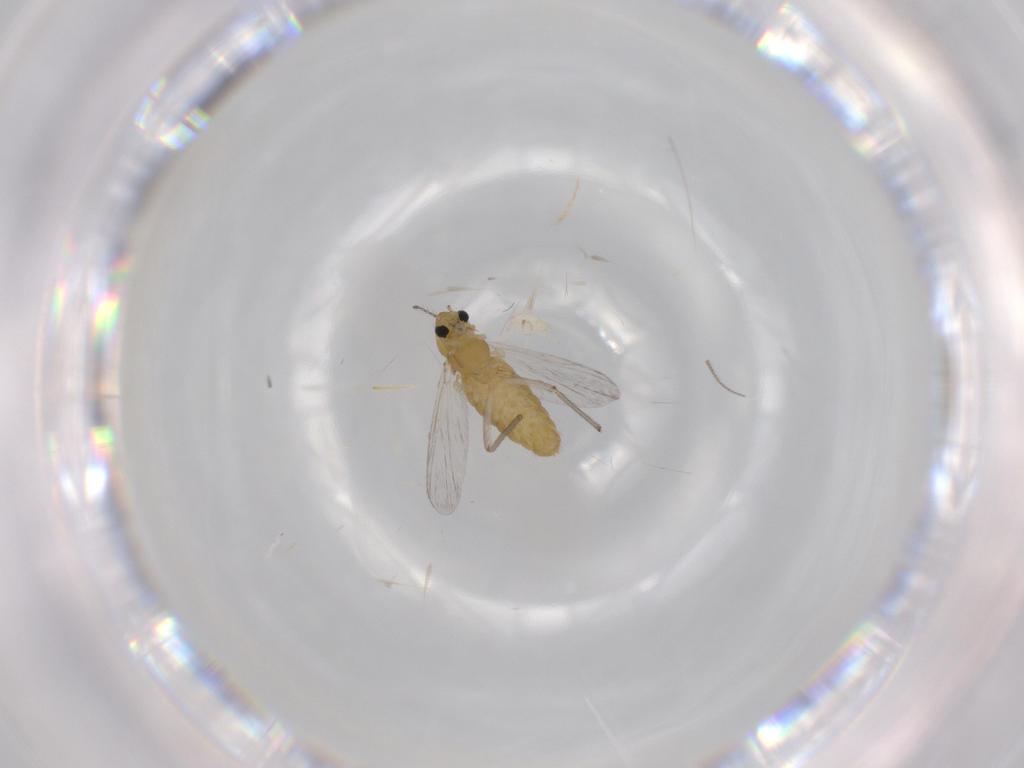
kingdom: Animalia
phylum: Arthropoda
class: Insecta
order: Diptera
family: Chironomidae
